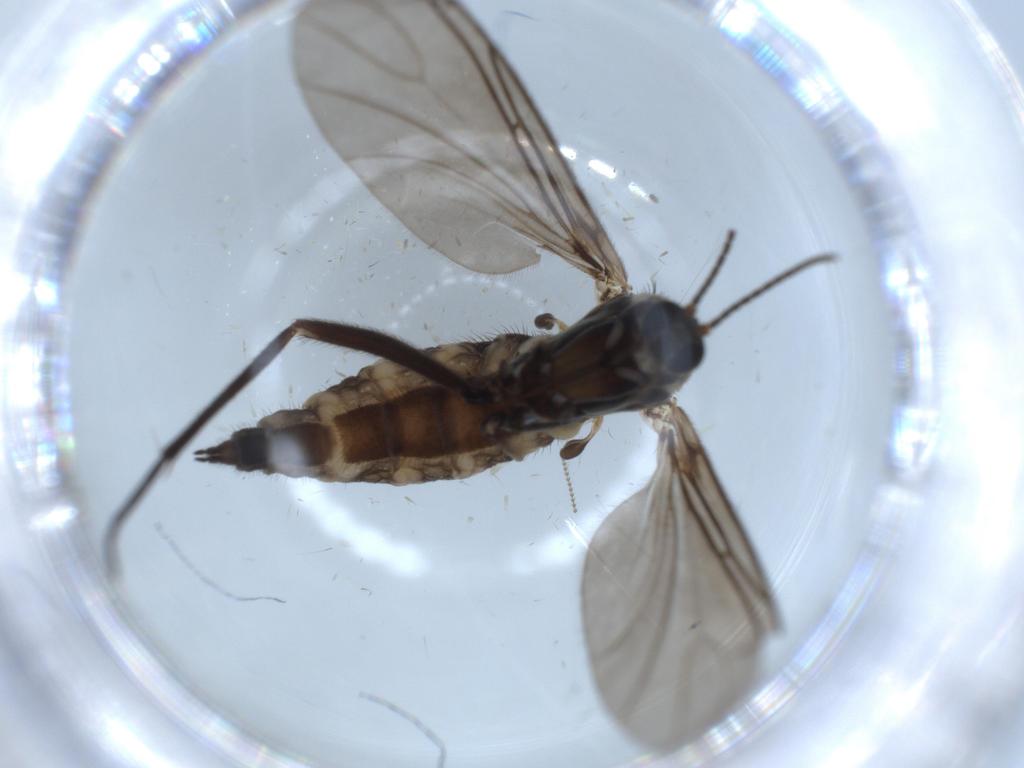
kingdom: Animalia
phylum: Arthropoda
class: Insecta
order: Diptera
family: Sciaridae
